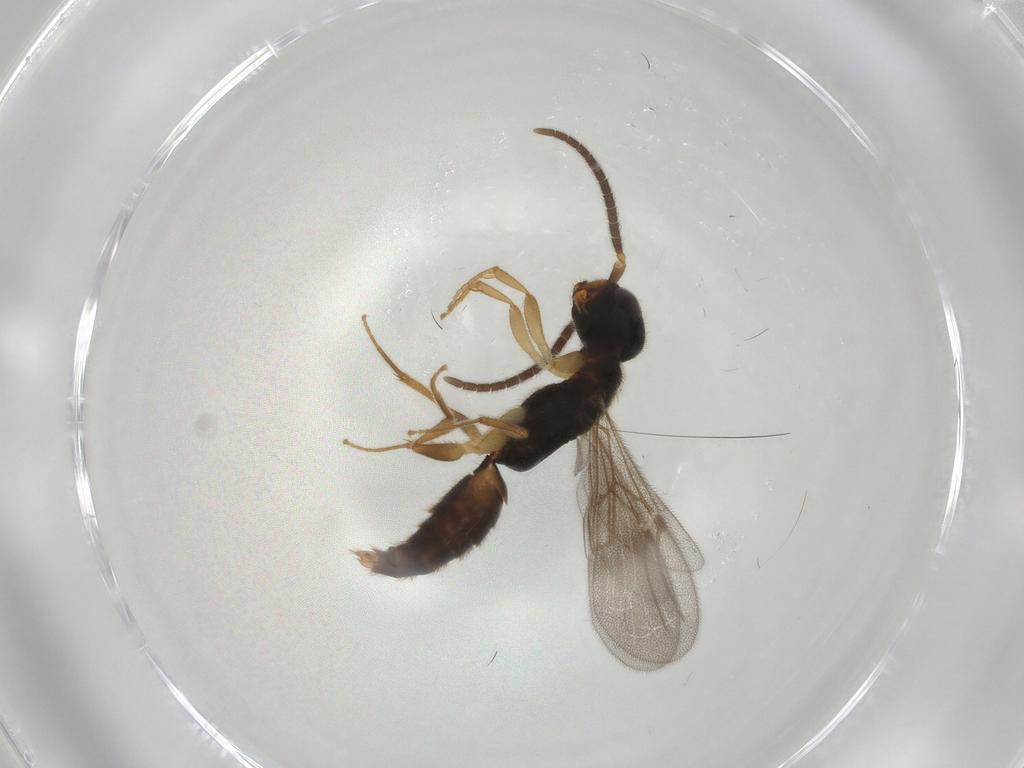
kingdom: Animalia
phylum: Arthropoda
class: Insecta
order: Hymenoptera
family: Bethylidae
